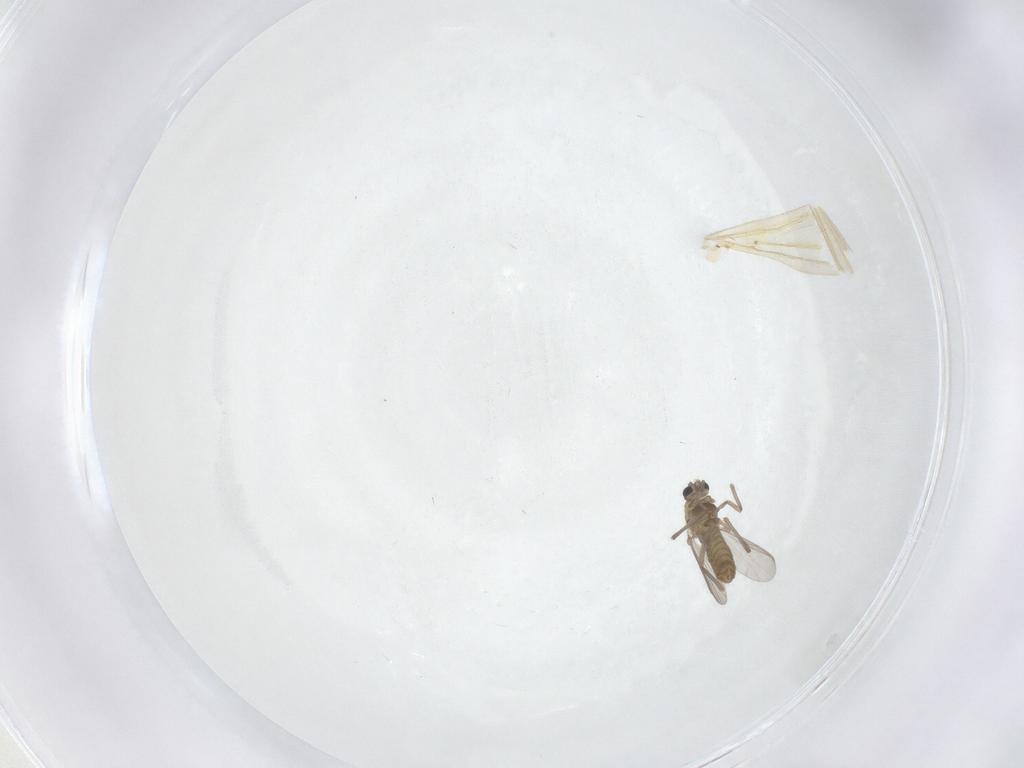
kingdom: Animalia
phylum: Arthropoda
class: Insecta
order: Diptera
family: Chironomidae
